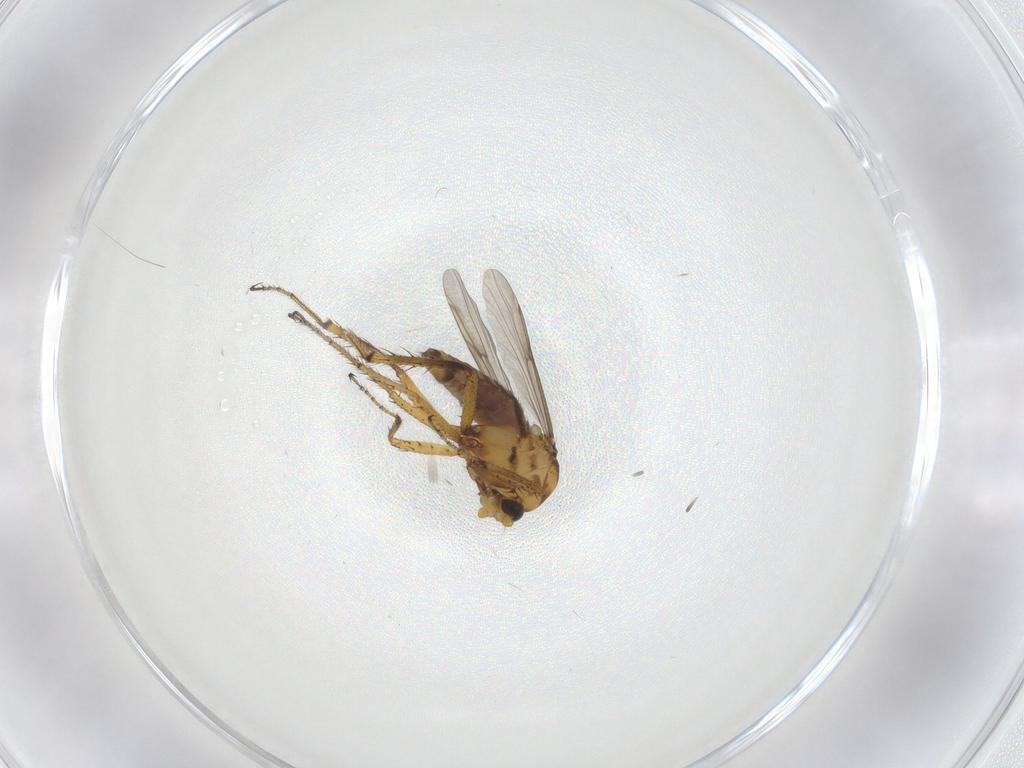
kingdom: Animalia
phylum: Arthropoda
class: Insecta
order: Diptera
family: Ceratopogonidae
